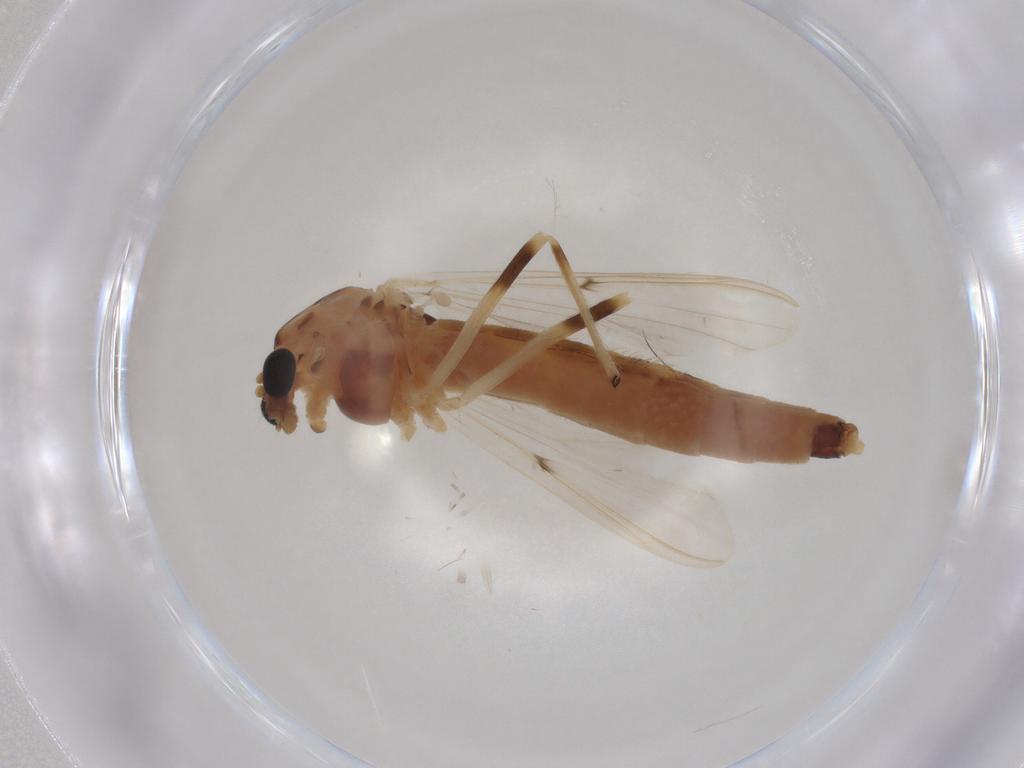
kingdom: Animalia
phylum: Arthropoda
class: Insecta
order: Diptera
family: Chironomidae
